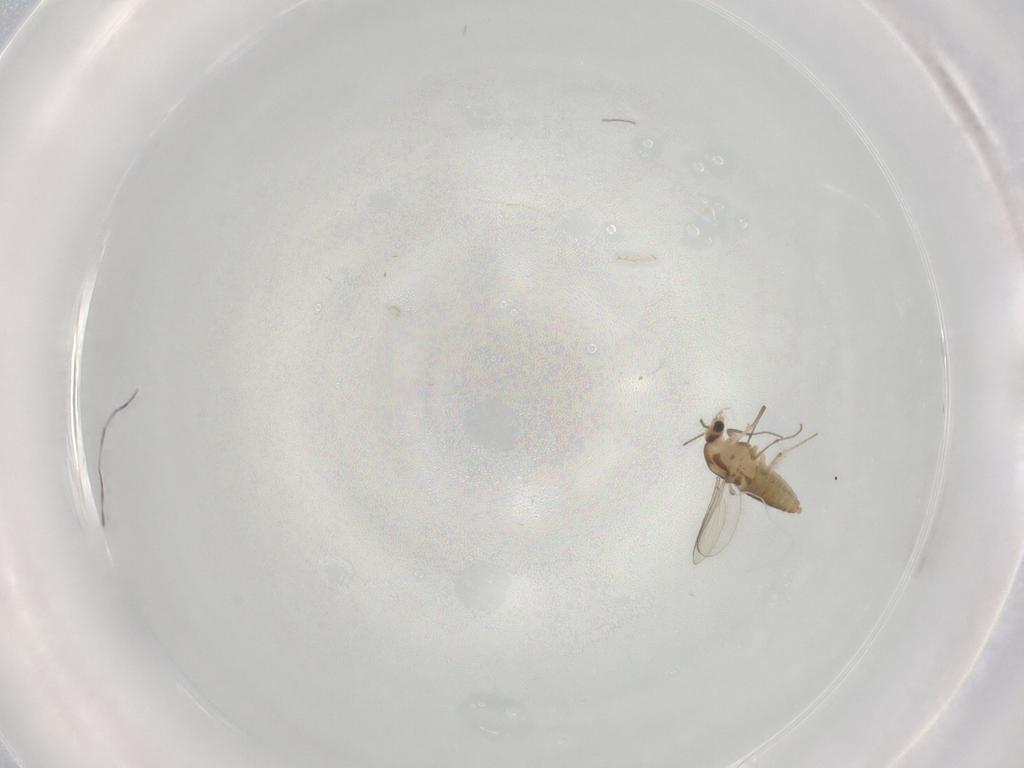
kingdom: Animalia
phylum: Arthropoda
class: Insecta
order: Diptera
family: Chironomidae
